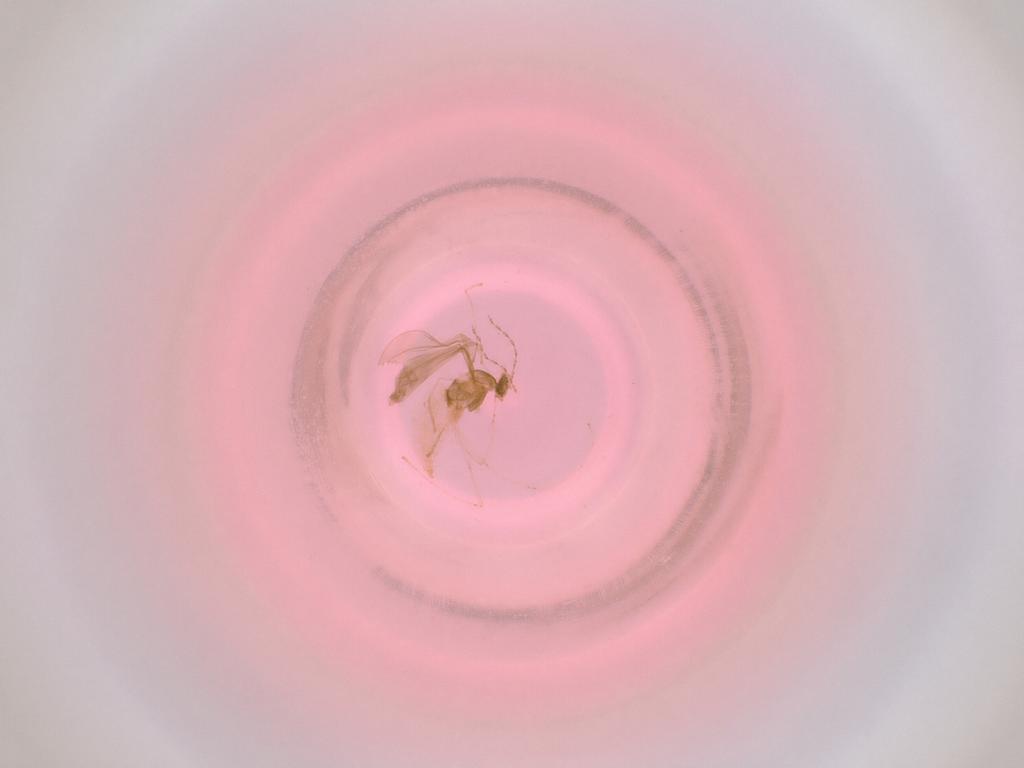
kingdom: Animalia
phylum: Arthropoda
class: Insecta
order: Diptera
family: Cecidomyiidae
